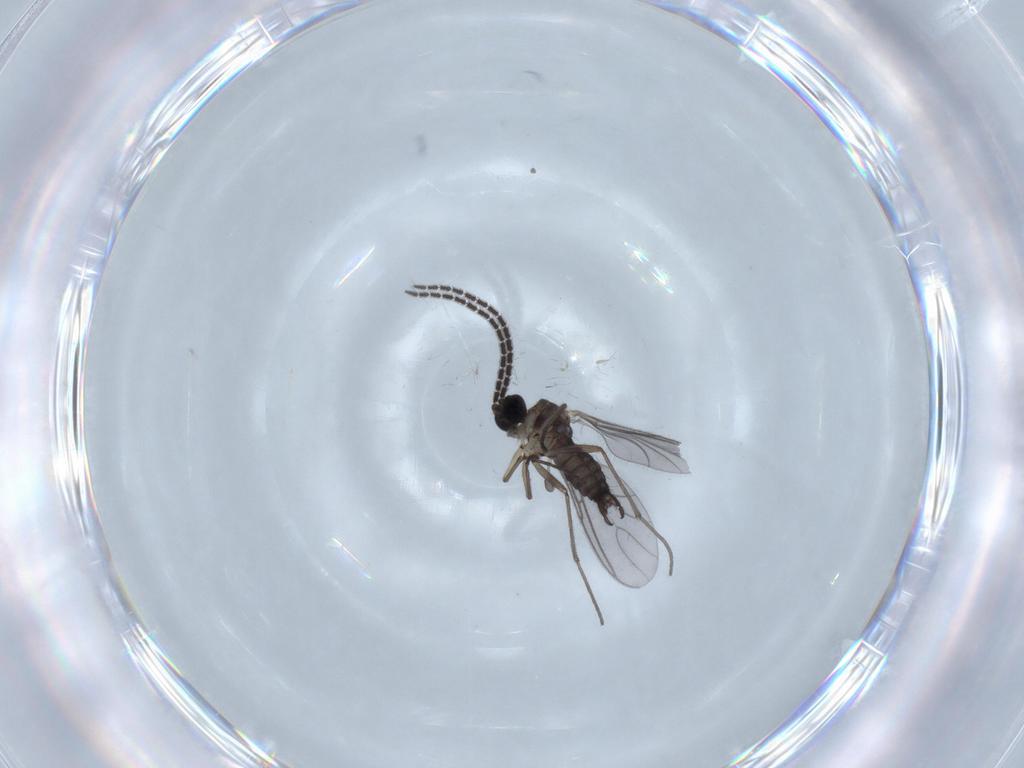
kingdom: Animalia
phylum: Arthropoda
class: Insecta
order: Diptera
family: Sciaridae
